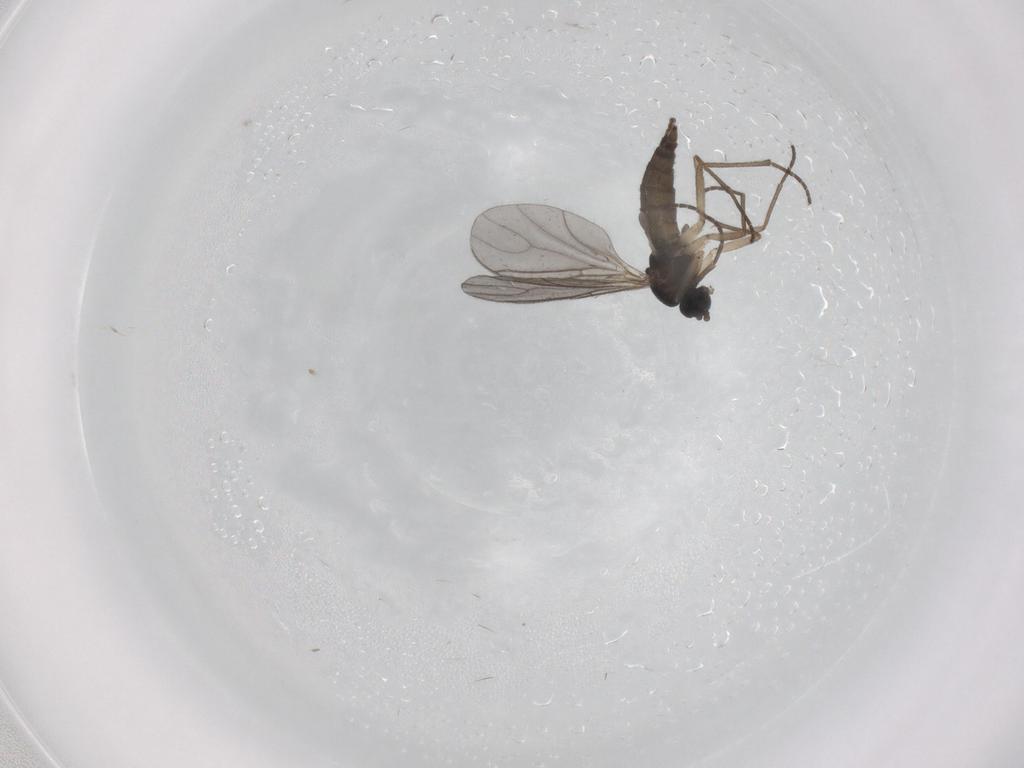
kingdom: Animalia
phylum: Arthropoda
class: Insecta
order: Diptera
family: Sciaridae
